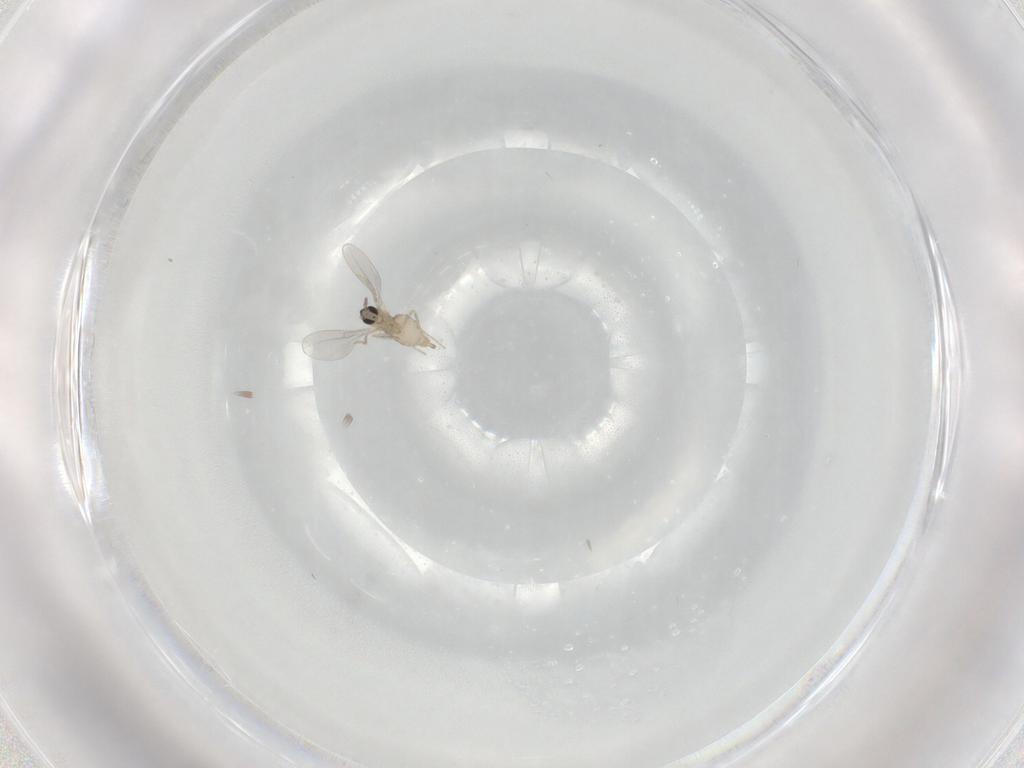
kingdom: Animalia
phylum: Arthropoda
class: Insecta
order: Diptera
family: Cecidomyiidae
